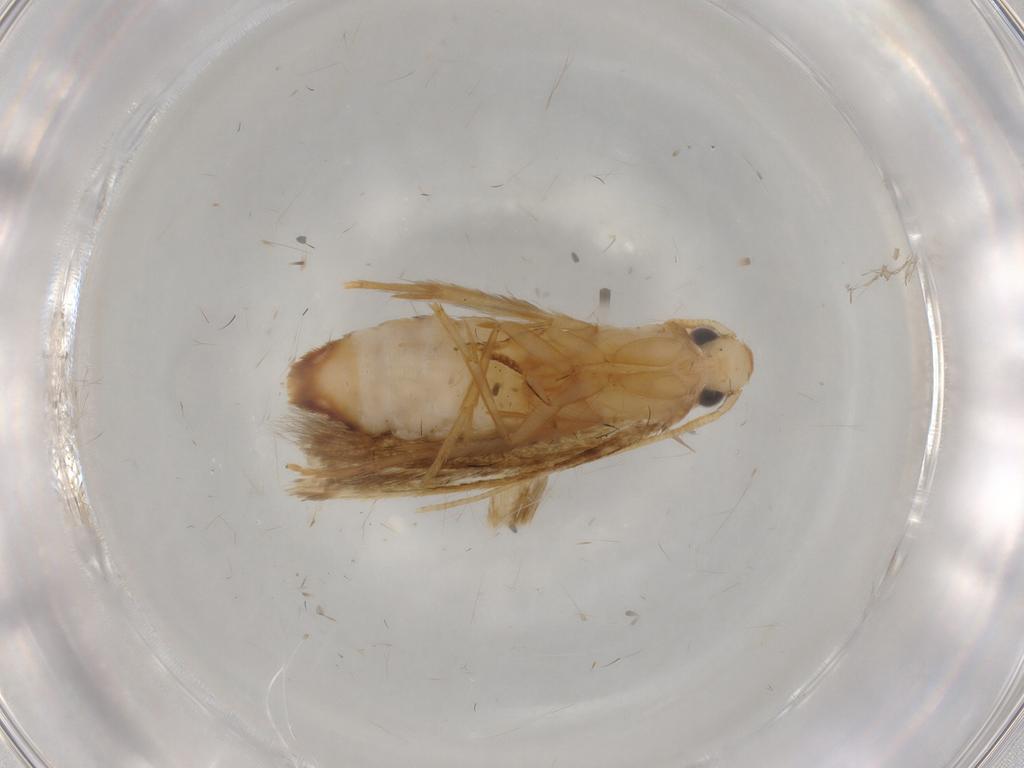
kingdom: Animalia
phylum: Arthropoda
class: Insecta
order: Lepidoptera
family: Tineidae
